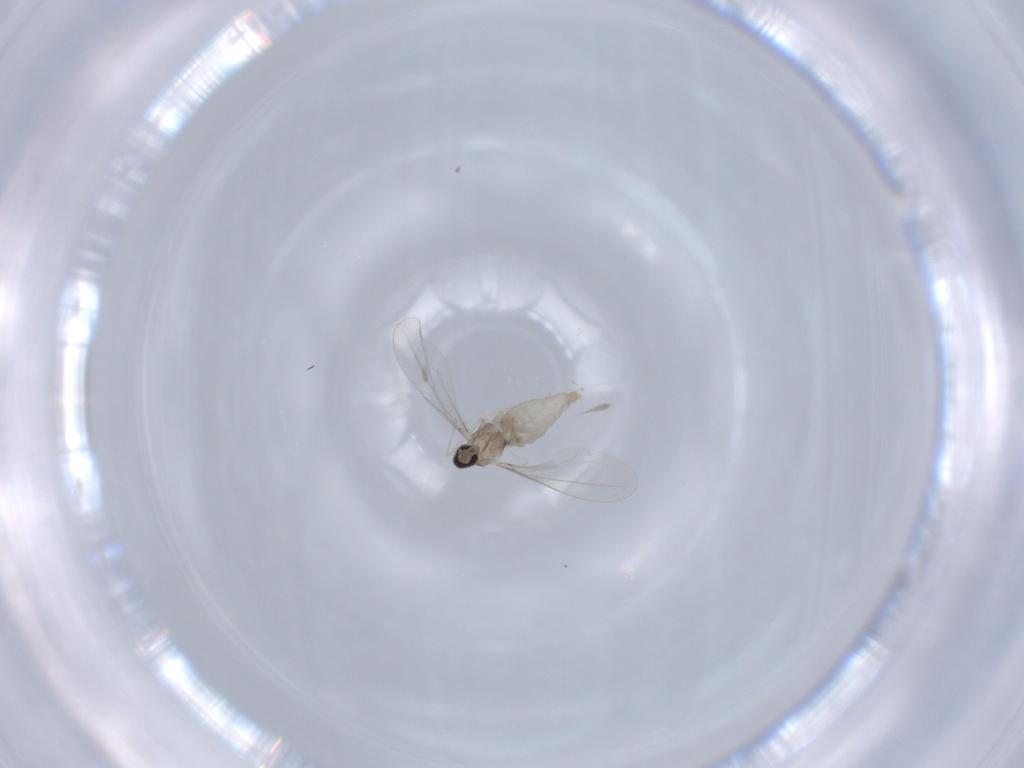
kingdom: Animalia
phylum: Arthropoda
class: Insecta
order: Diptera
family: Cecidomyiidae
